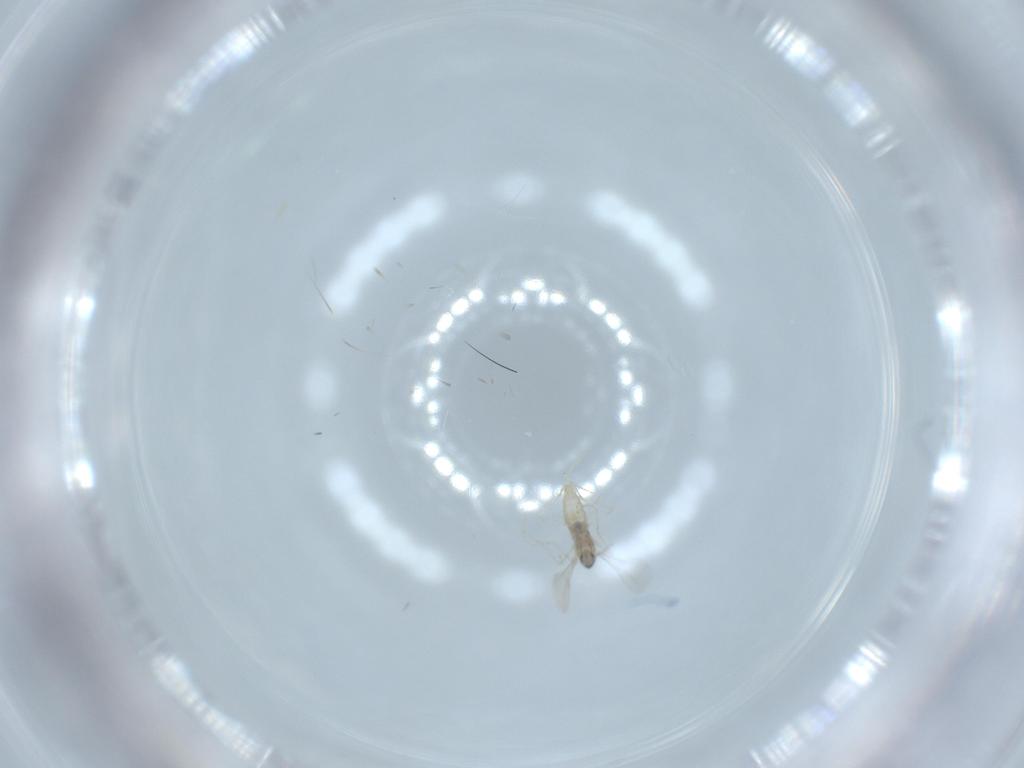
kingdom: Animalia
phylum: Arthropoda
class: Insecta
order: Diptera
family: Cecidomyiidae
